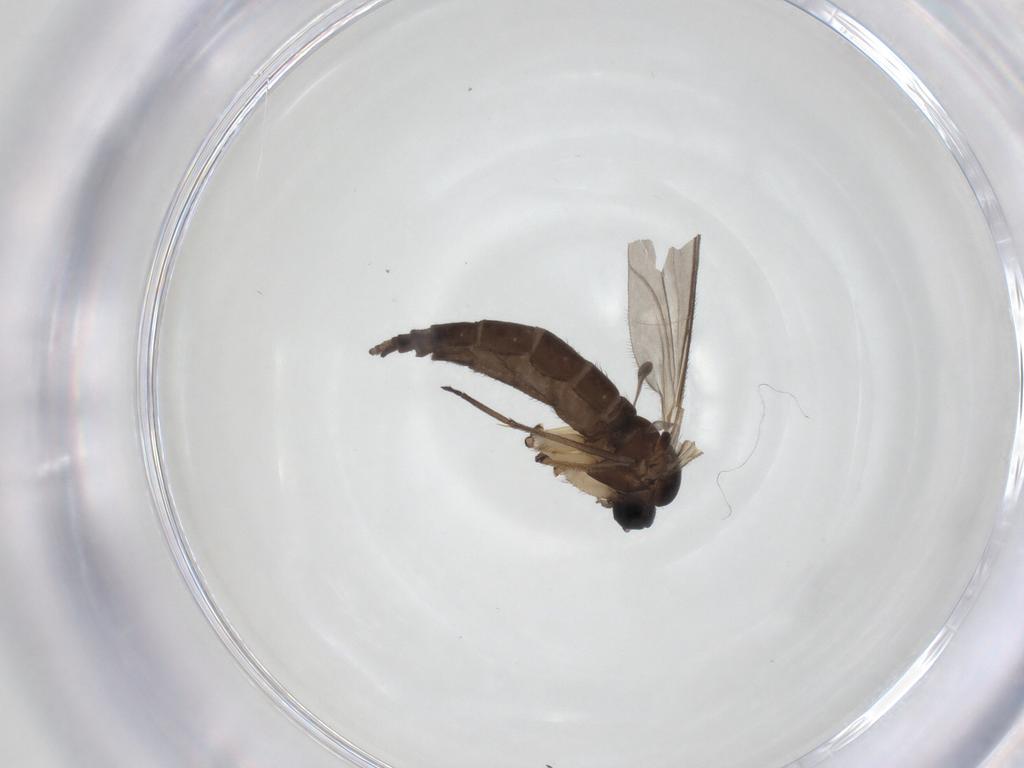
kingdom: Animalia
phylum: Arthropoda
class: Insecta
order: Diptera
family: Sciaridae
